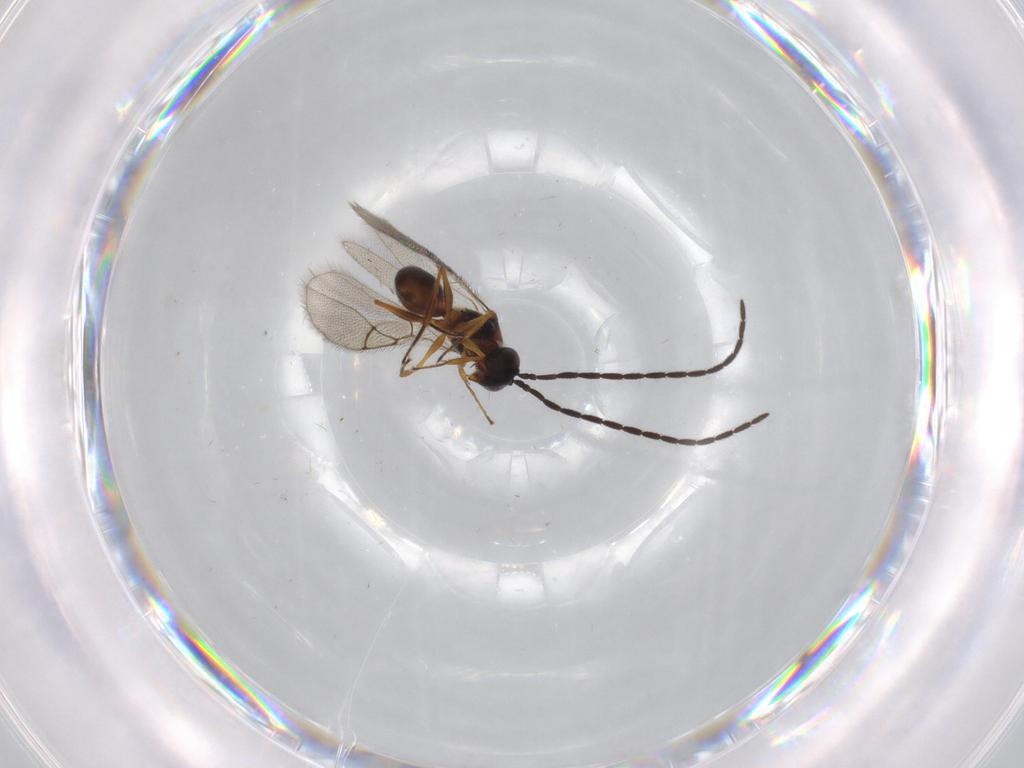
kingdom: Animalia
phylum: Arthropoda
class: Insecta
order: Hymenoptera
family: Figitidae
